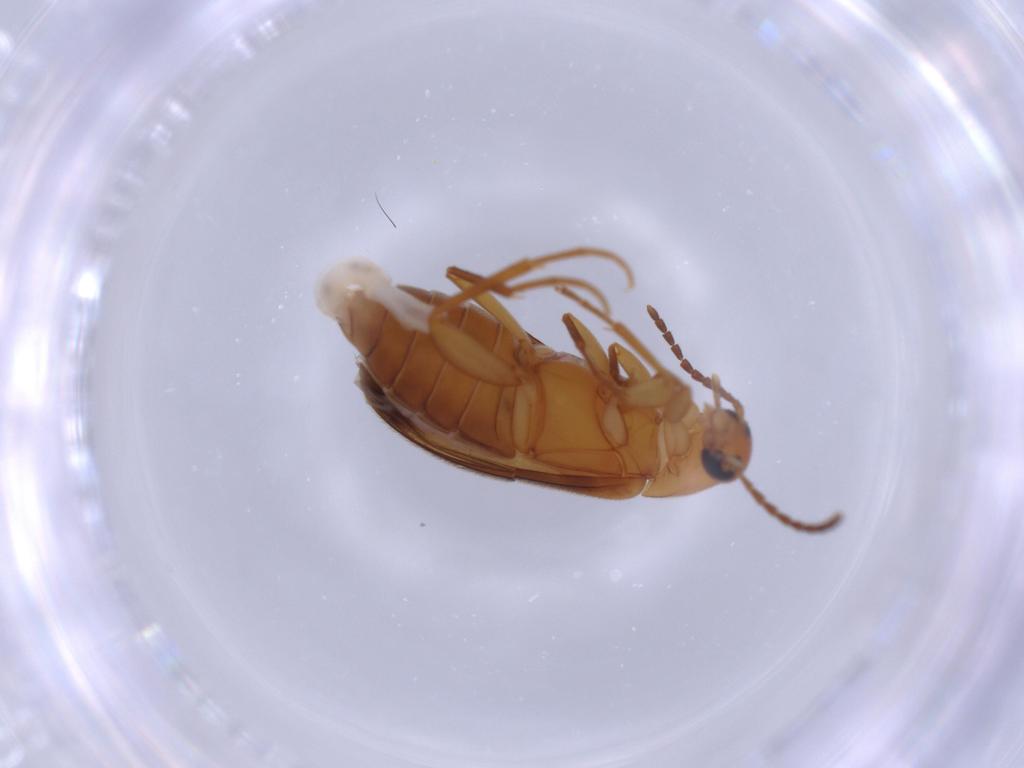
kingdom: Animalia
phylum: Arthropoda
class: Insecta
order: Coleoptera
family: Scraptiidae
